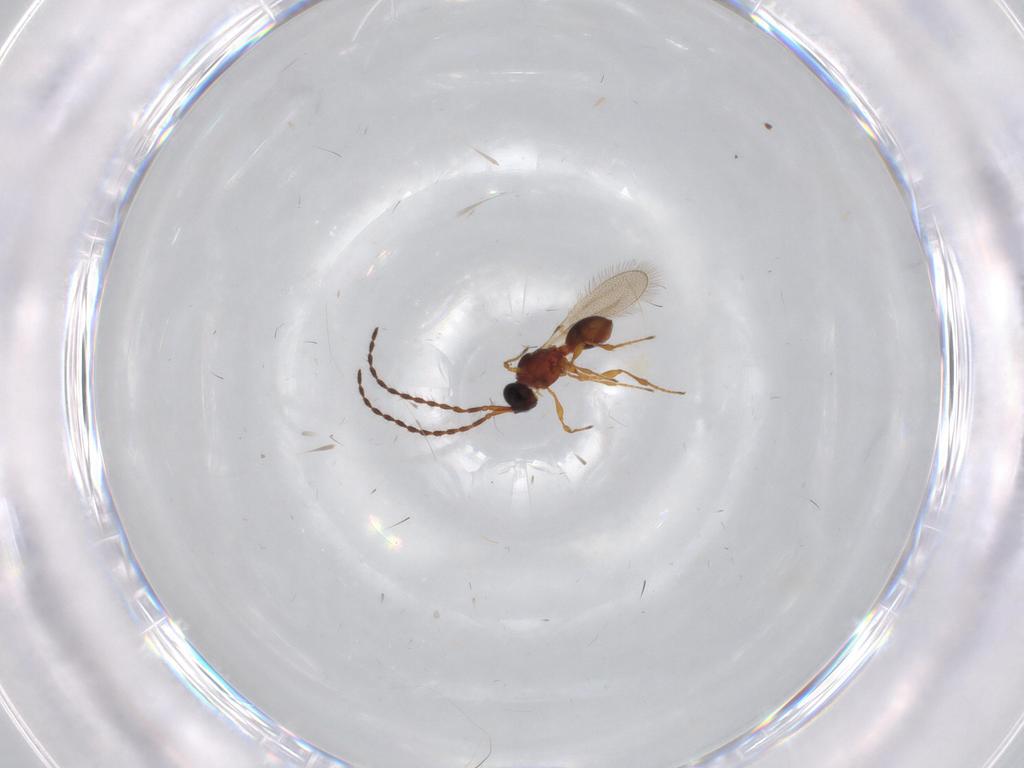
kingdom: Animalia
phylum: Arthropoda
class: Insecta
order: Hymenoptera
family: Diapriidae
